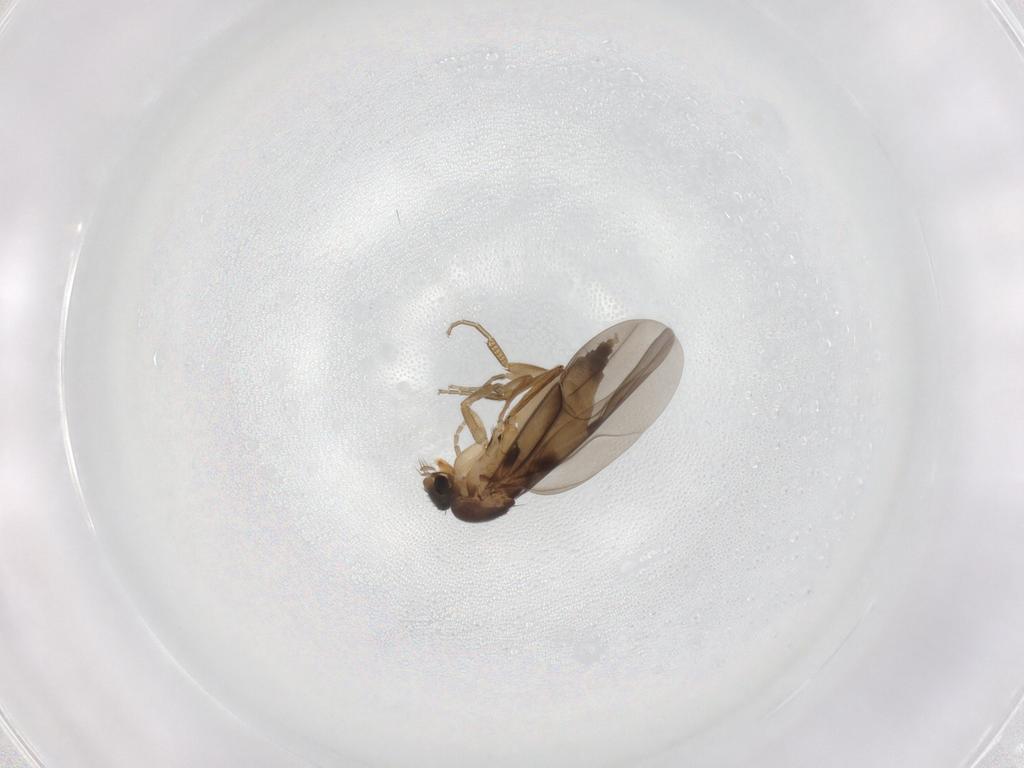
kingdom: Animalia
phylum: Arthropoda
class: Insecta
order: Diptera
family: Phoridae
